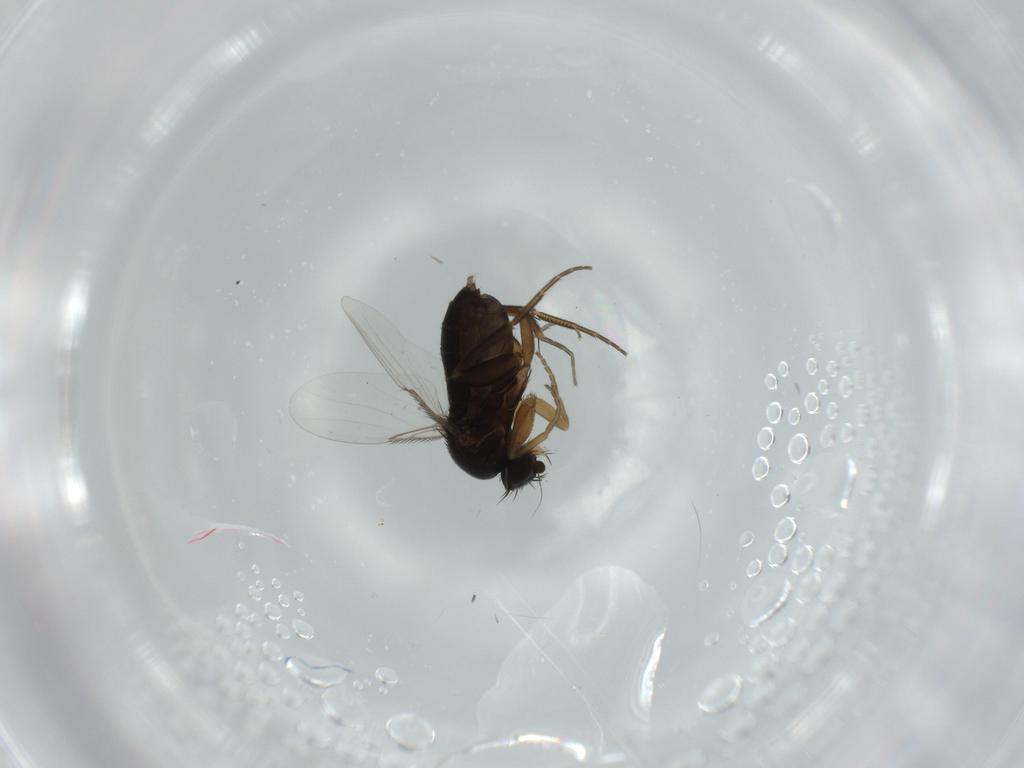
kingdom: Animalia
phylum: Arthropoda
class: Insecta
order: Diptera
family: Phoridae
